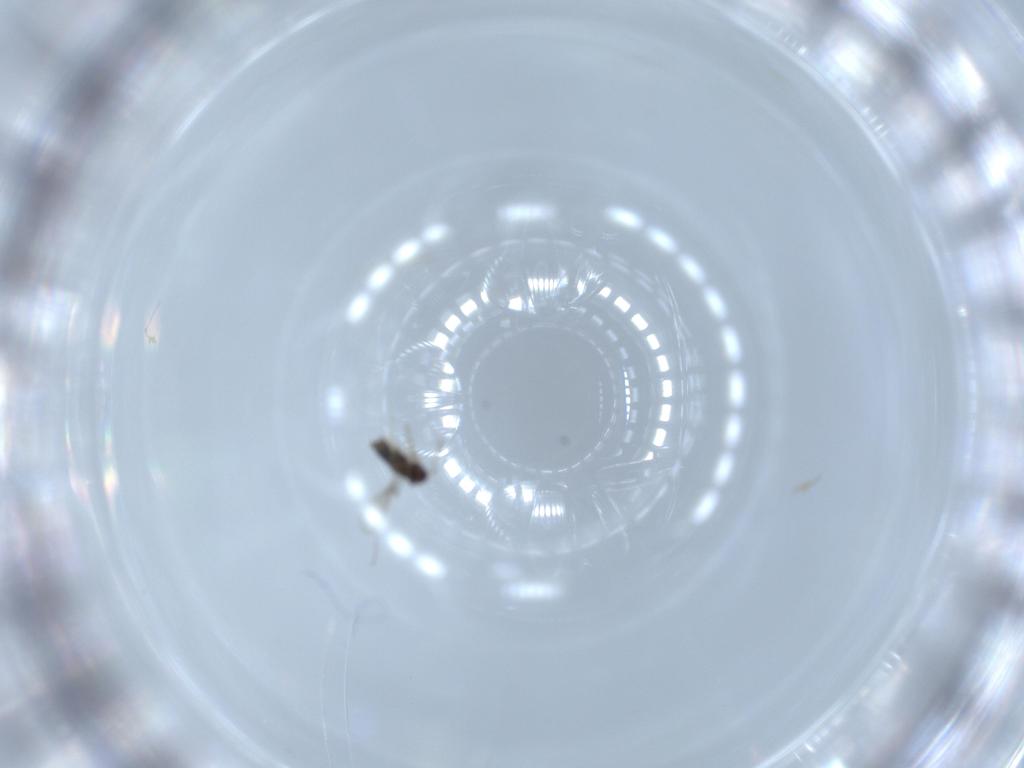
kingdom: Animalia
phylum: Arthropoda
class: Insecta
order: Hymenoptera
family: Aphelinidae
